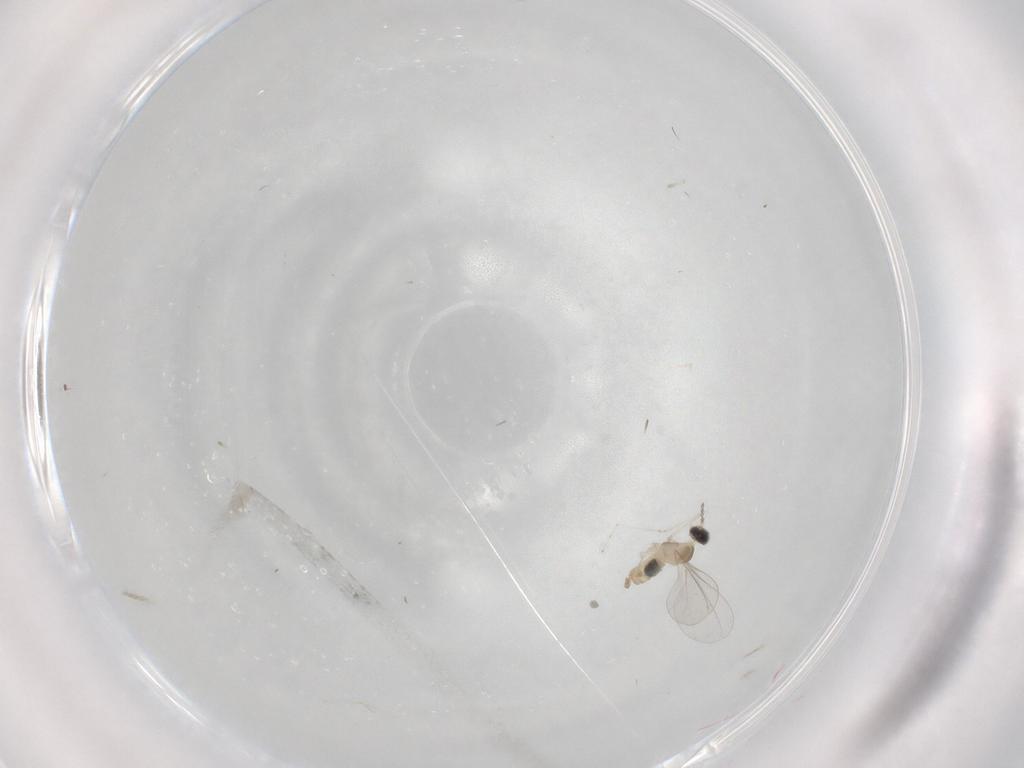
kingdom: Animalia
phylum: Arthropoda
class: Insecta
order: Diptera
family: Cecidomyiidae
